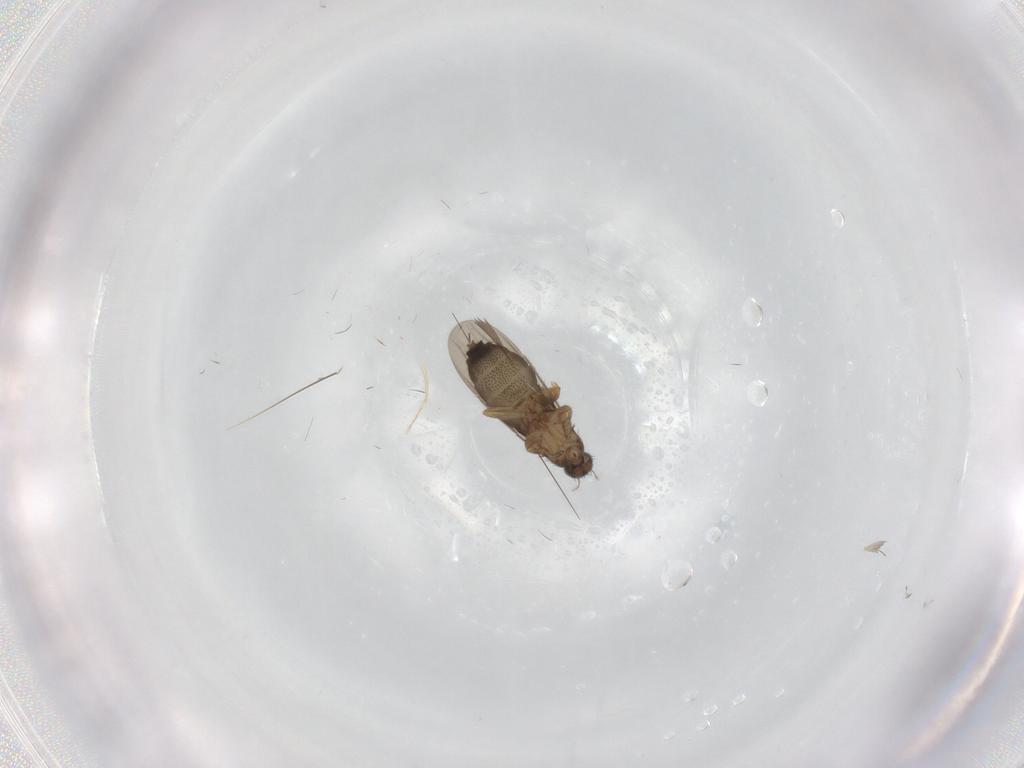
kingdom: Animalia
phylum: Arthropoda
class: Insecta
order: Diptera
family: Phoridae
